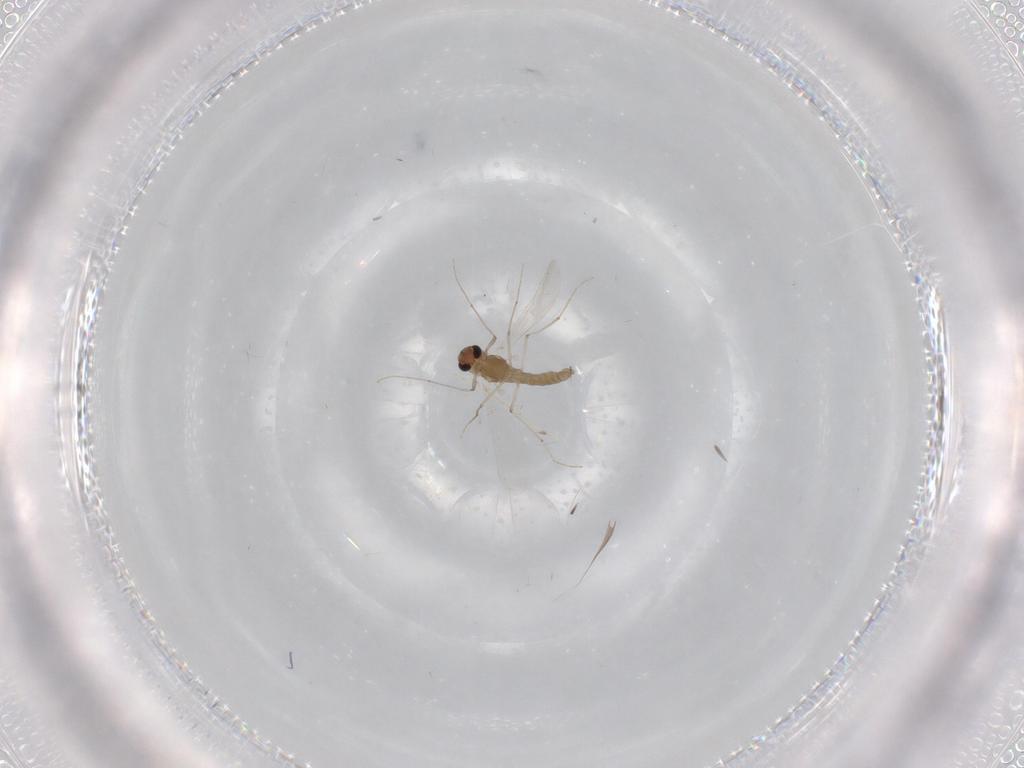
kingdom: Animalia
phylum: Arthropoda
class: Insecta
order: Diptera
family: Chironomidae
